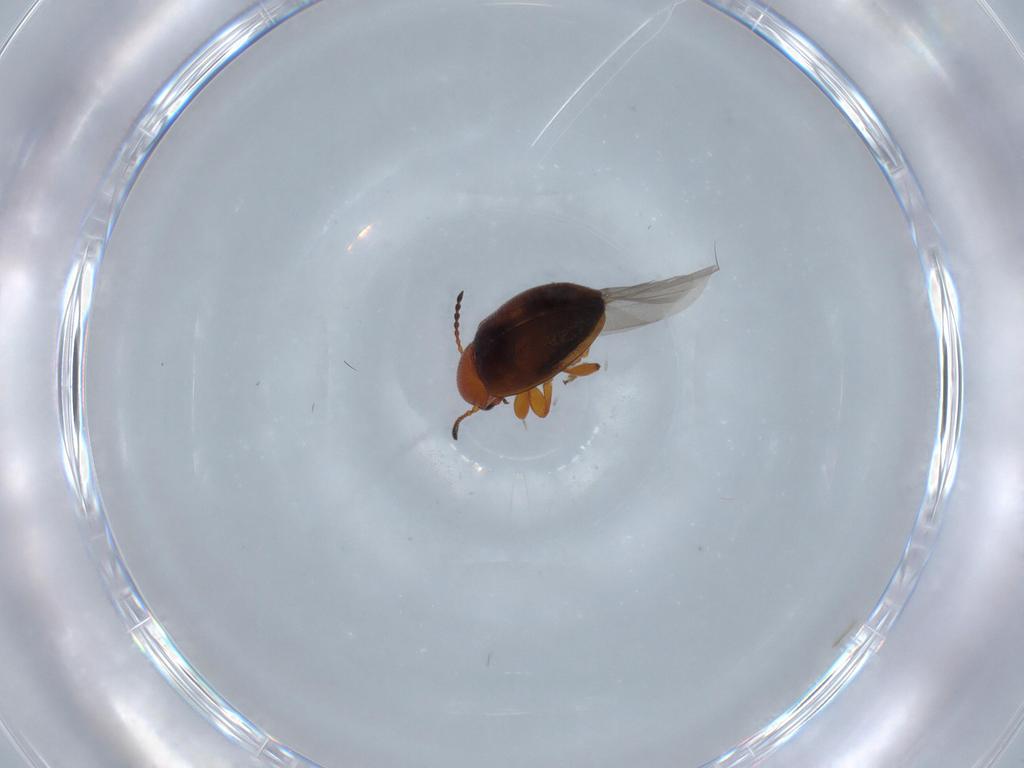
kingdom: Animalia
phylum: Arthropoda
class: Insecta
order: Coleoptera
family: Chrysomelidae
